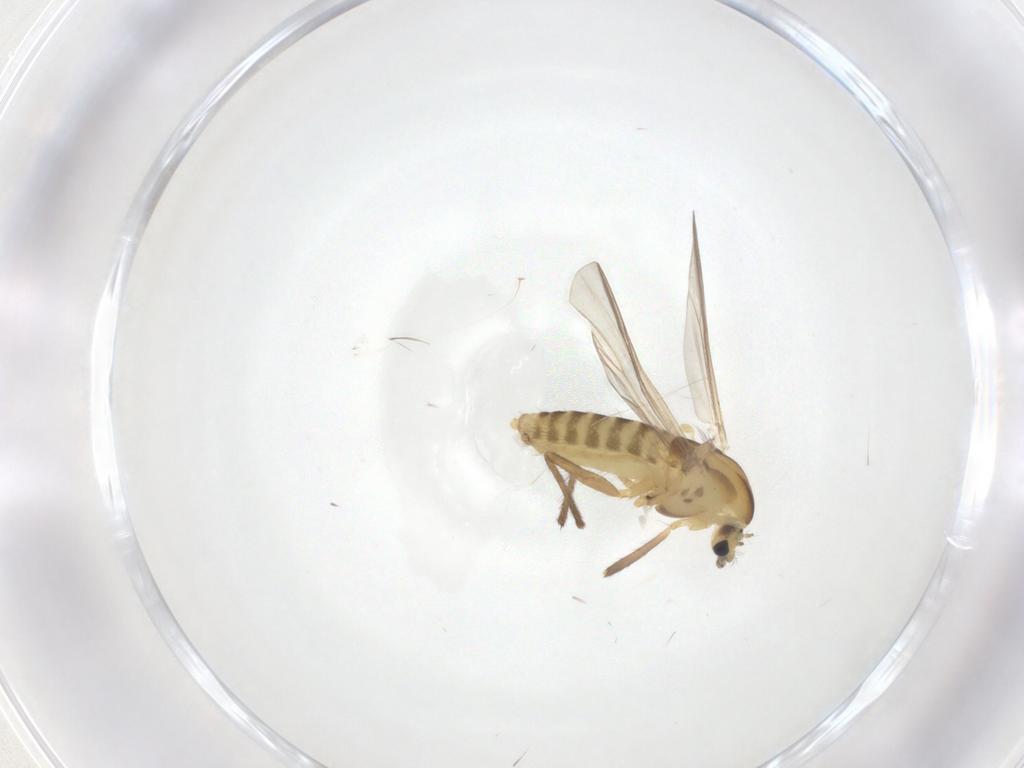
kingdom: Animalia
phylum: Arthropoda
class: Insecta
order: Diptera
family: Chironomidae
